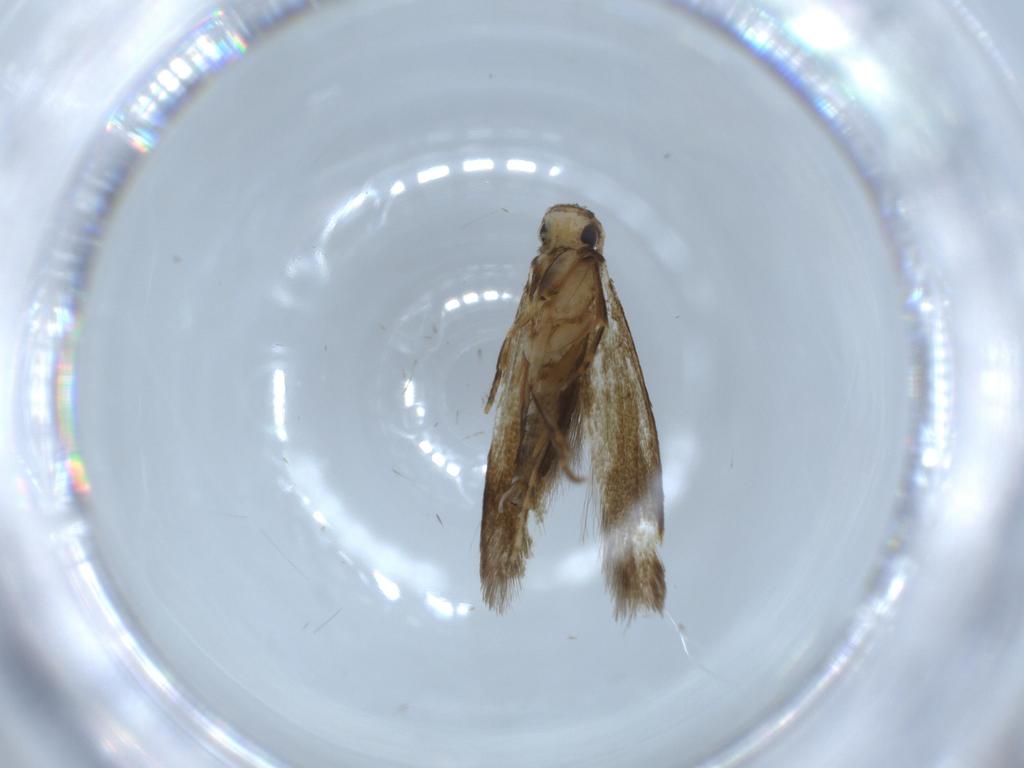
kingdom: Animalia
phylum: Arthropoda
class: Insecta
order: Lepidoptera
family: Tineidae
